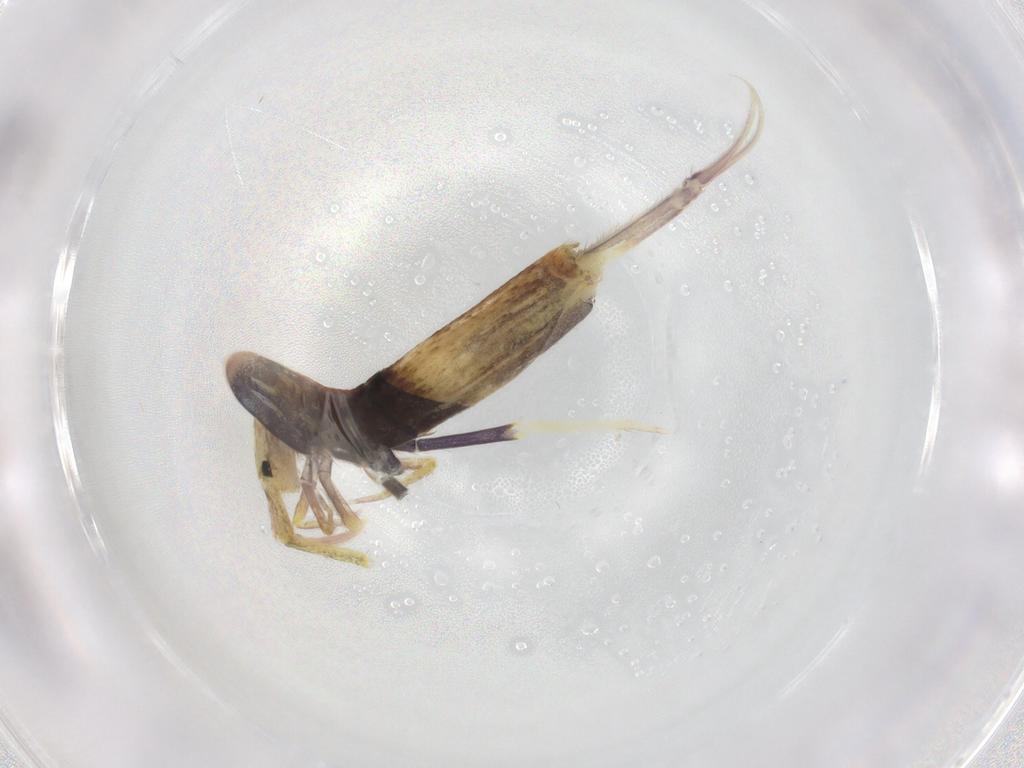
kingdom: Animalia
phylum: Arthropoda
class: Collembola
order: Entomobryomorpha
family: Entomobryidae
